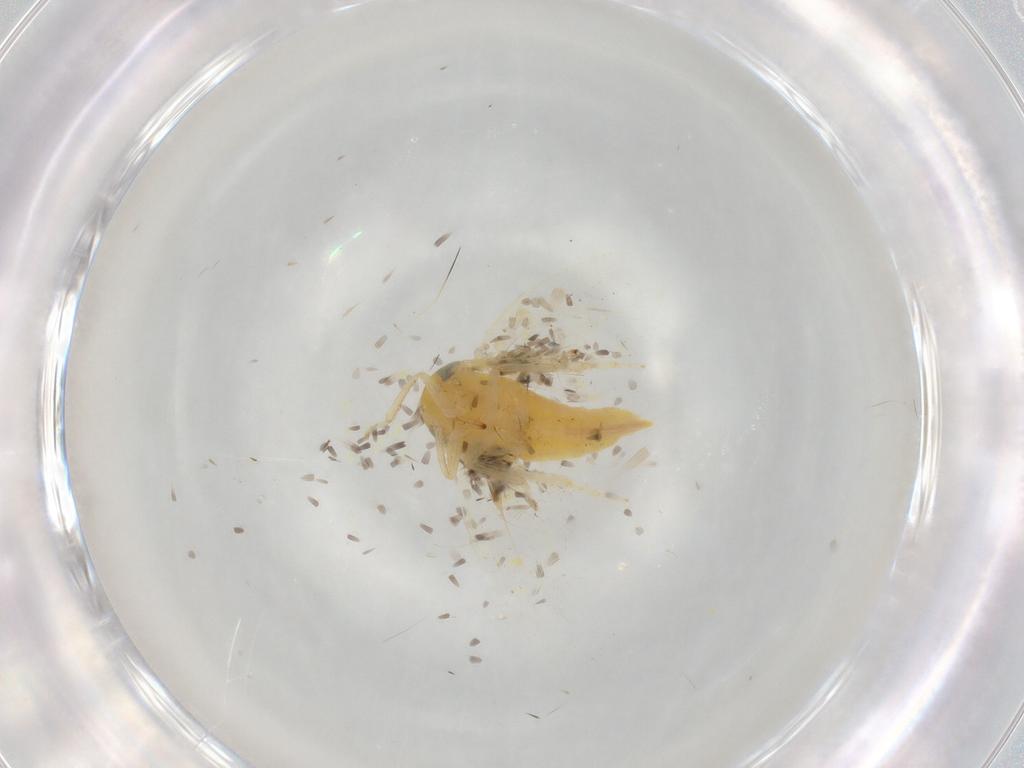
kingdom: Animalia
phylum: Arthropoda
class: Insecta
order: Hemiptera
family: Cicadellidae
